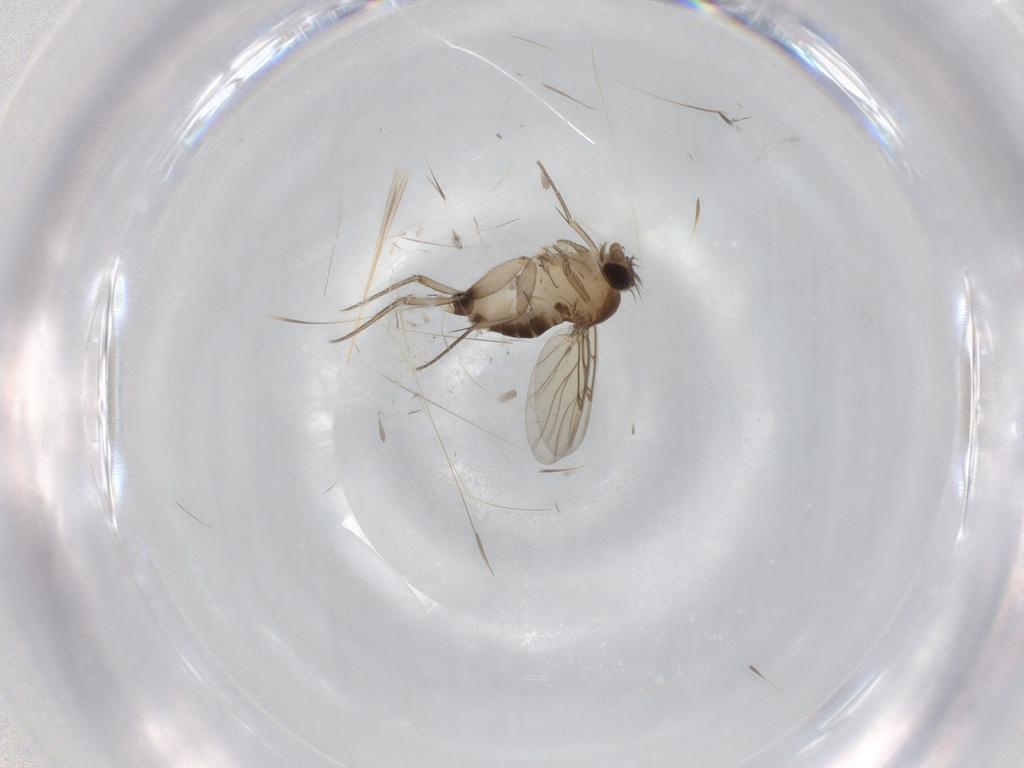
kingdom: Animalia
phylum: Arthropoda
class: Insecta
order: Diptera
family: Phoridae
